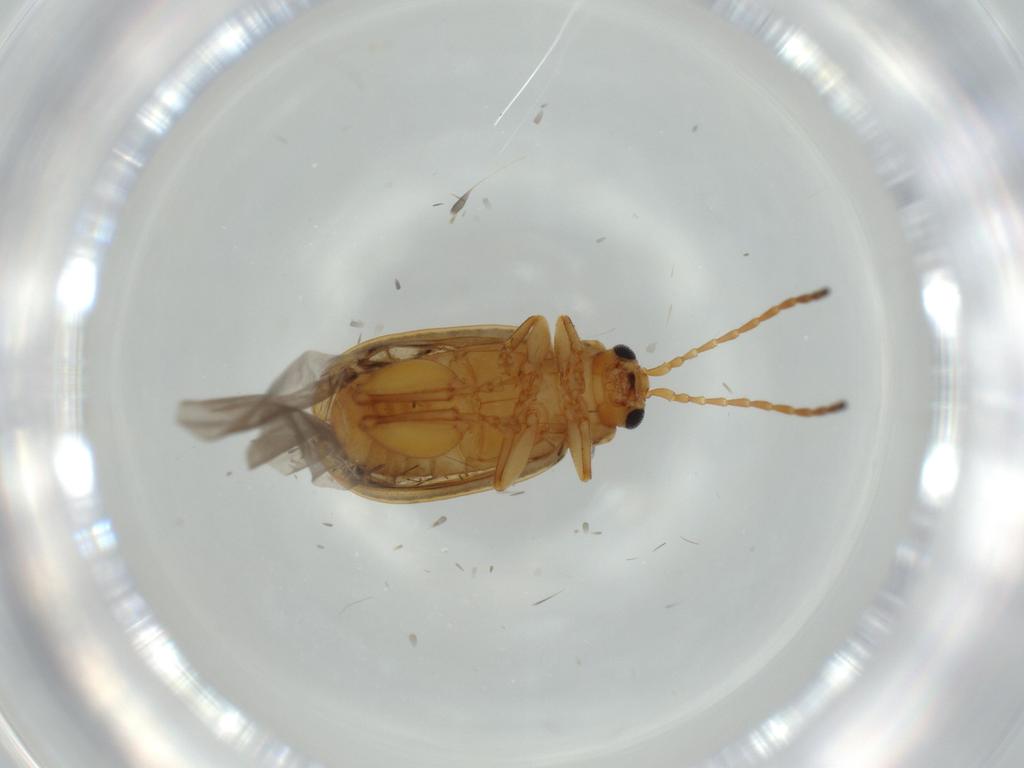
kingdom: Animalia
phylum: Arthropoda
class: Insecta
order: Coleoptera
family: Chrysomelidae
